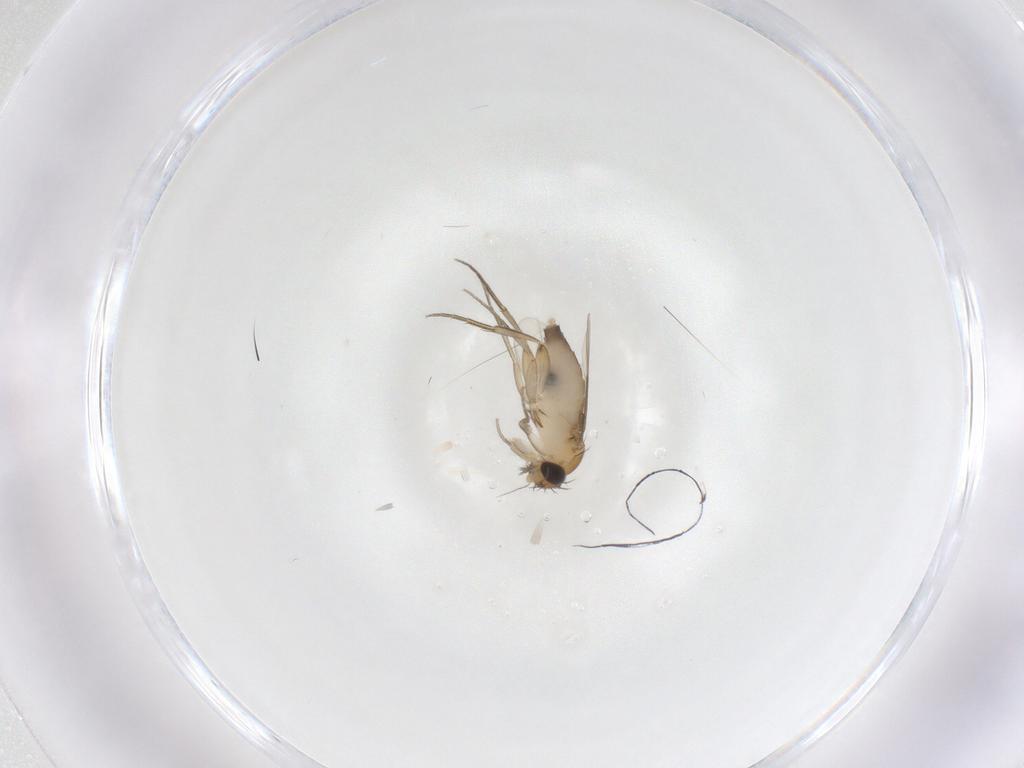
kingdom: Animalia
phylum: Arthropoda
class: Insecta
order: Diptera
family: Phoridae
